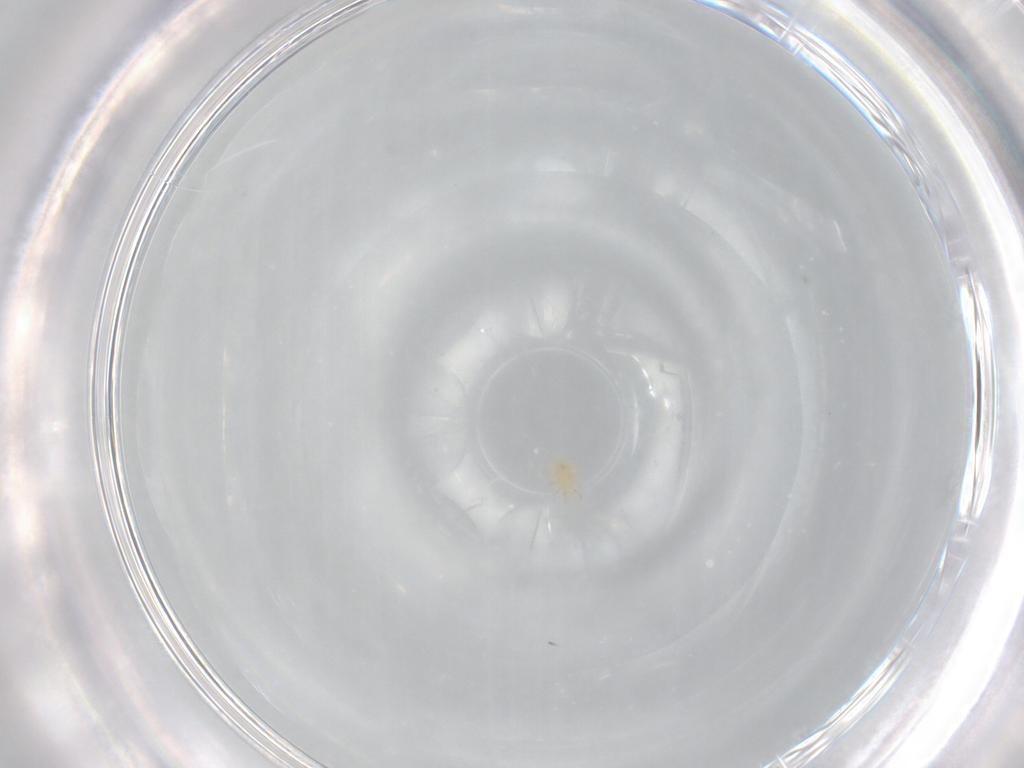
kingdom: Animalia
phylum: Arthropoda
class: Arachnida
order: Mesostigmata
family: Phytoseiidae
